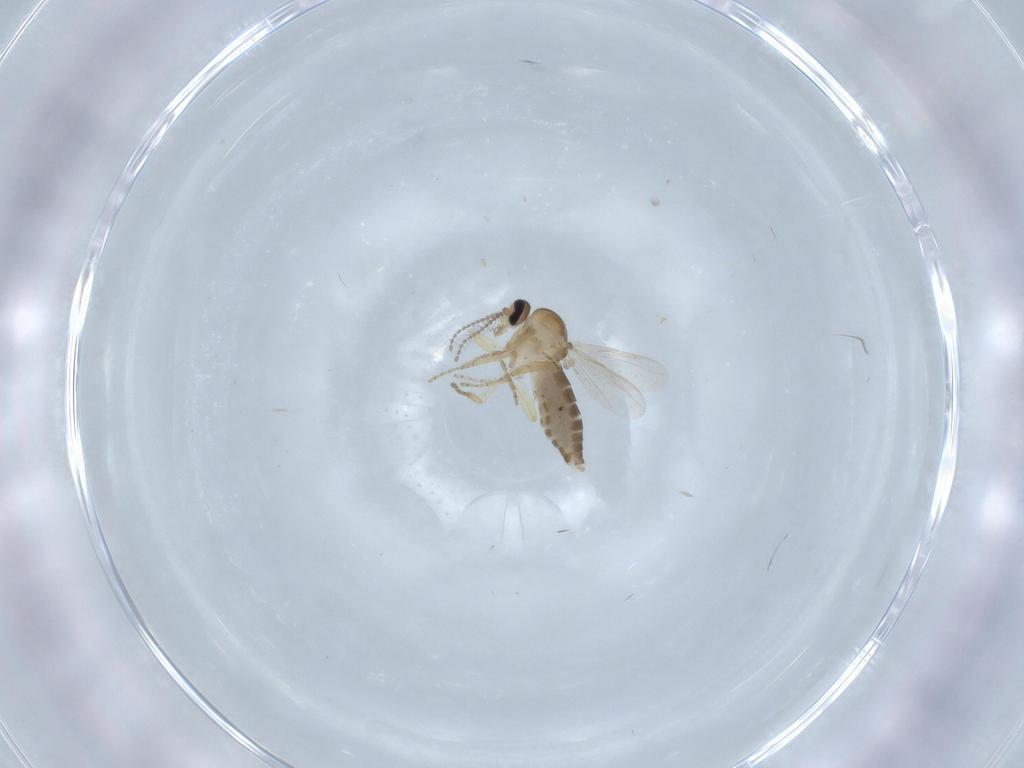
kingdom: Animalia
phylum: Arthropoda
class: Insecta
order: Diptera
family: Ceratopogonidae
